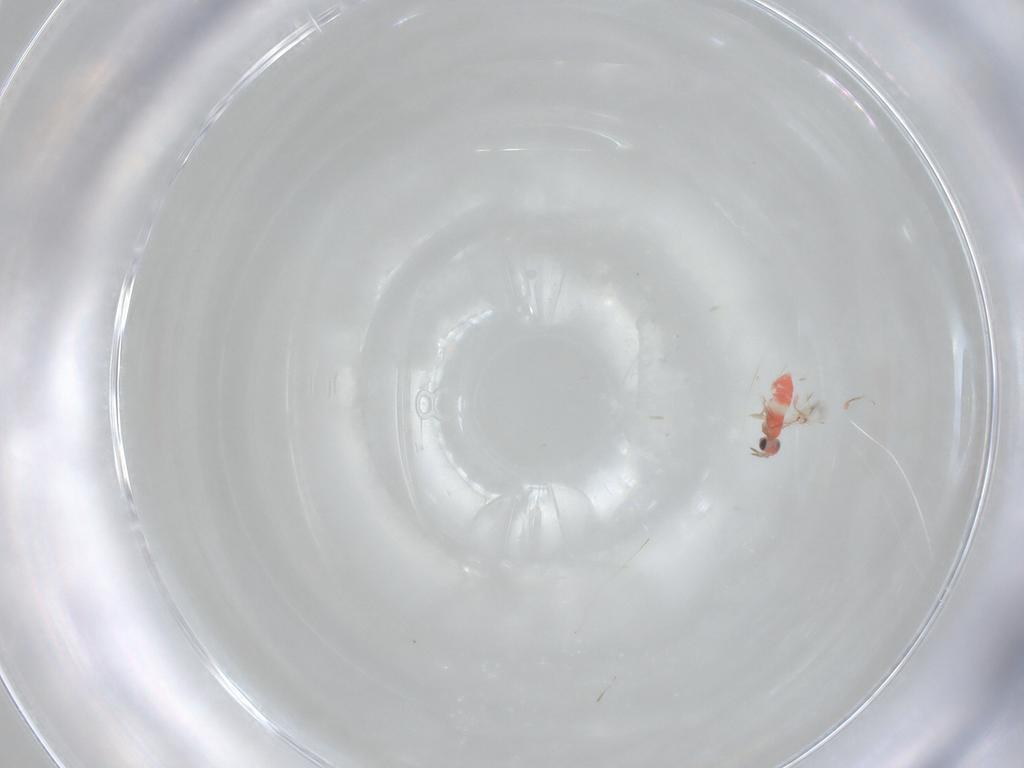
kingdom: Animalia
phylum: Arthropoda
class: Insecta
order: Hymenoptera
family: Trichogrammatidae
